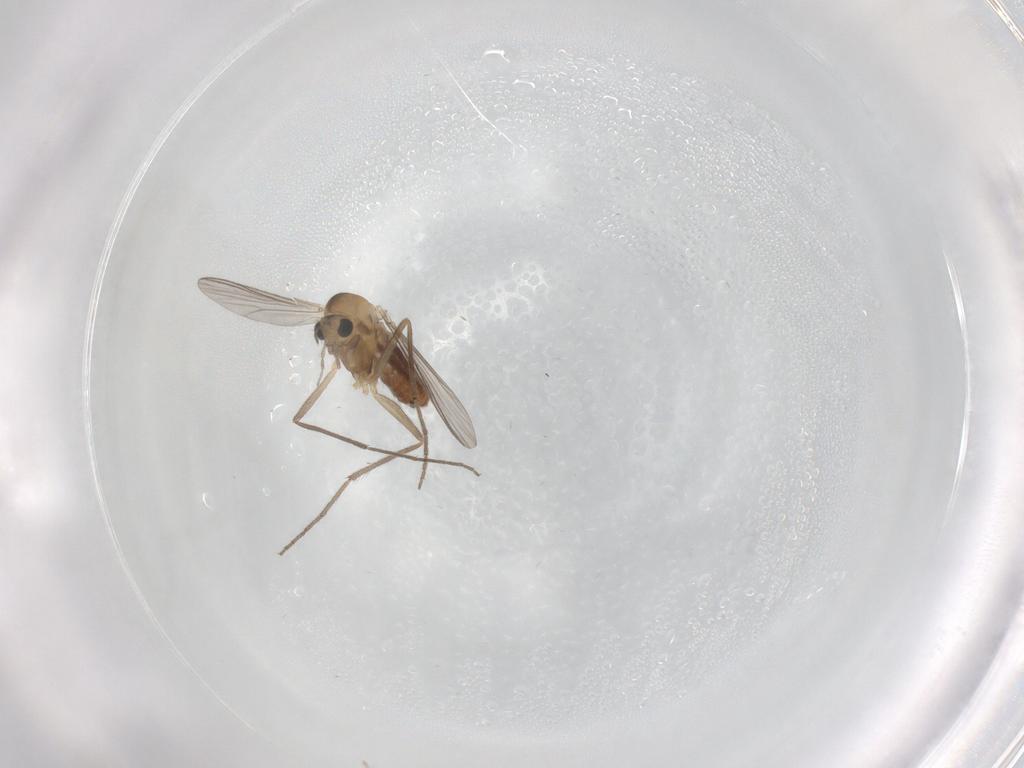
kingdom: Animalia
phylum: Arthropoda
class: Insecta
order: Diptera
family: Chironomidae
